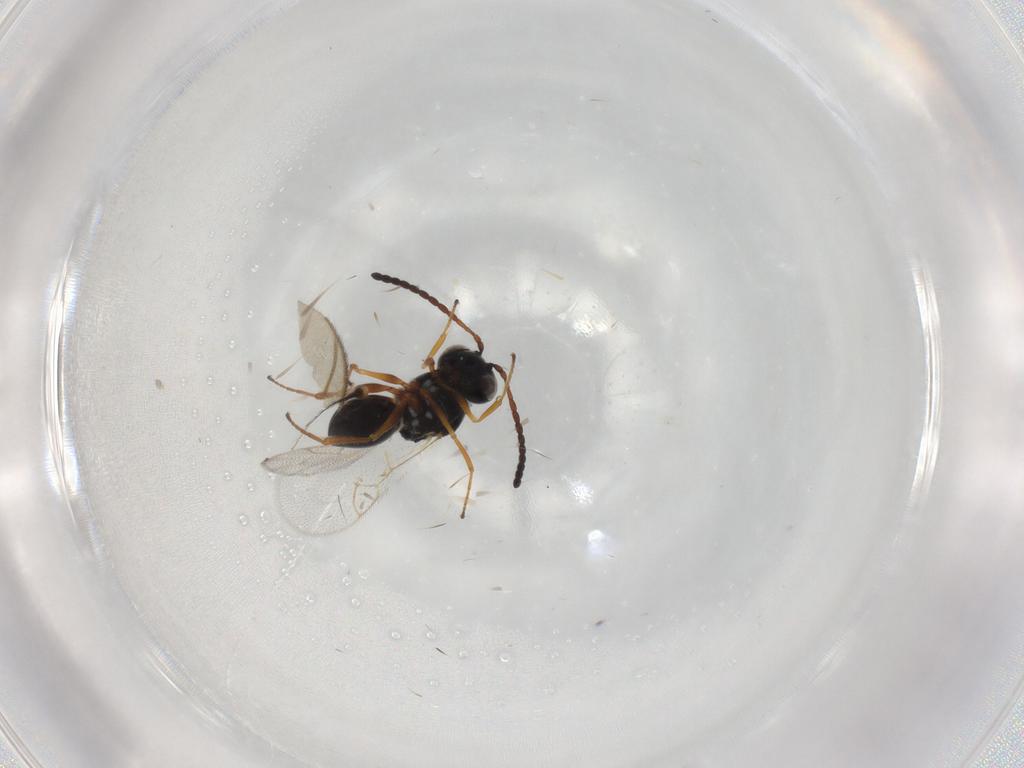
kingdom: Animalia
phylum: Arthropoda
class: Insecta
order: Hymenoptera
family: Figitidae
